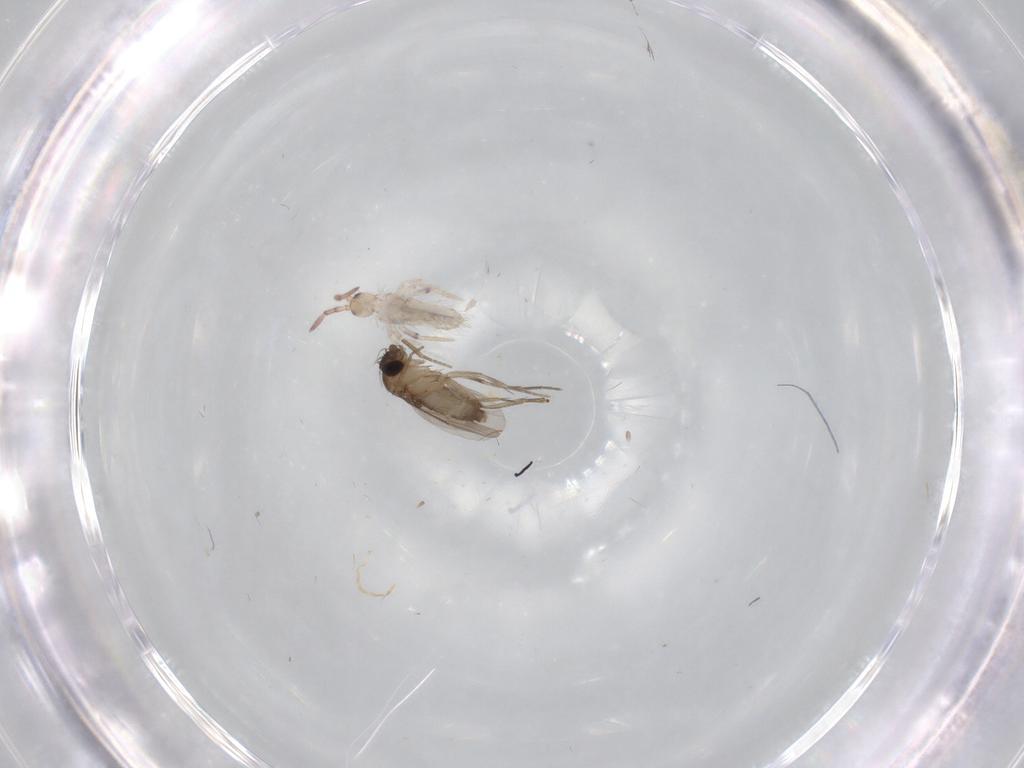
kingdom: Animalia
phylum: Arthropoda
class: Insecta
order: Diptera
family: Phoridae
